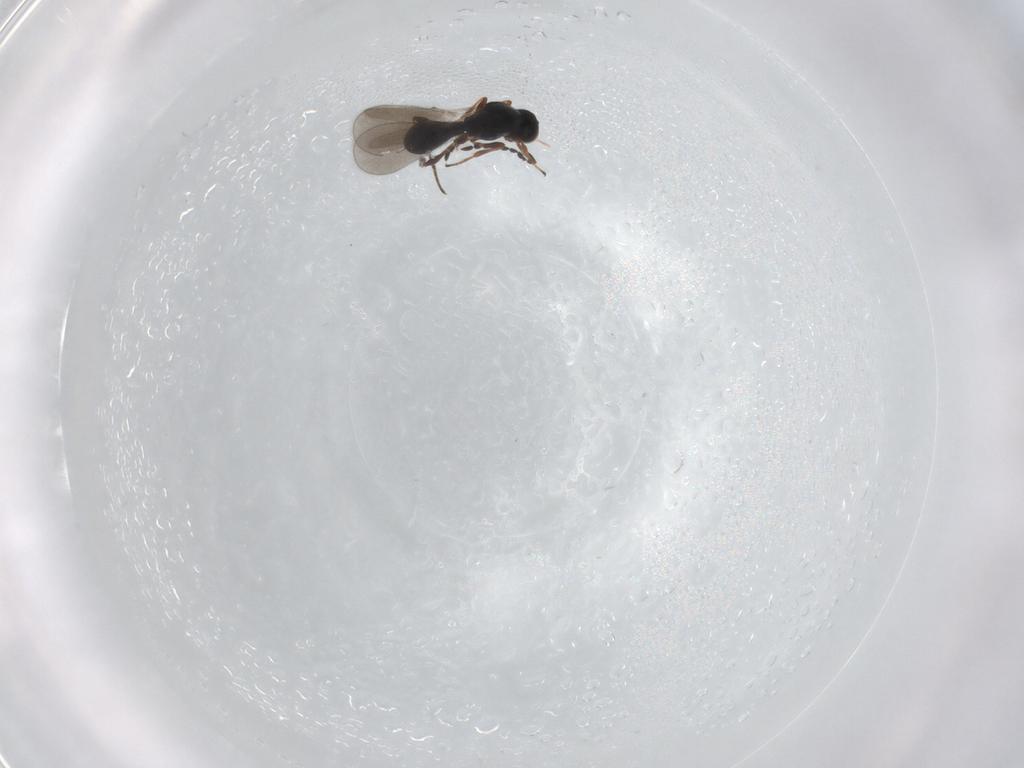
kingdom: Animalia
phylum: Arthropoda
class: Insecta
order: Hymenoptera
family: Platygastridae
